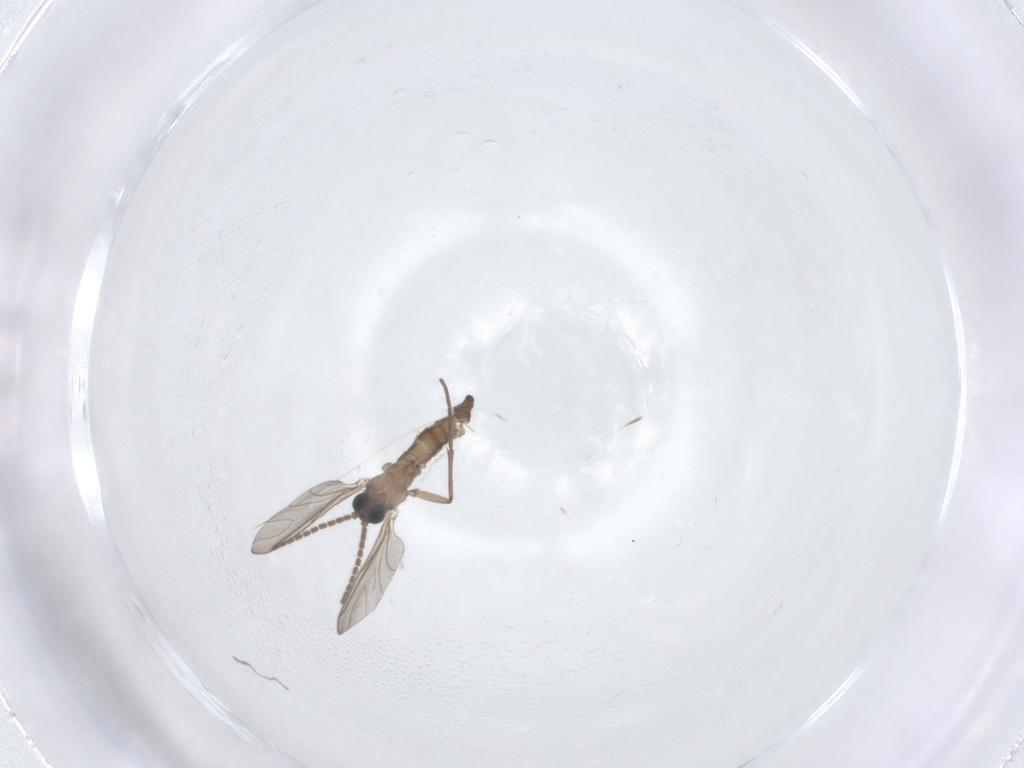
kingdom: Animalia
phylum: Arthropoda
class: Insecta
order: Diptera
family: Sciaridae
